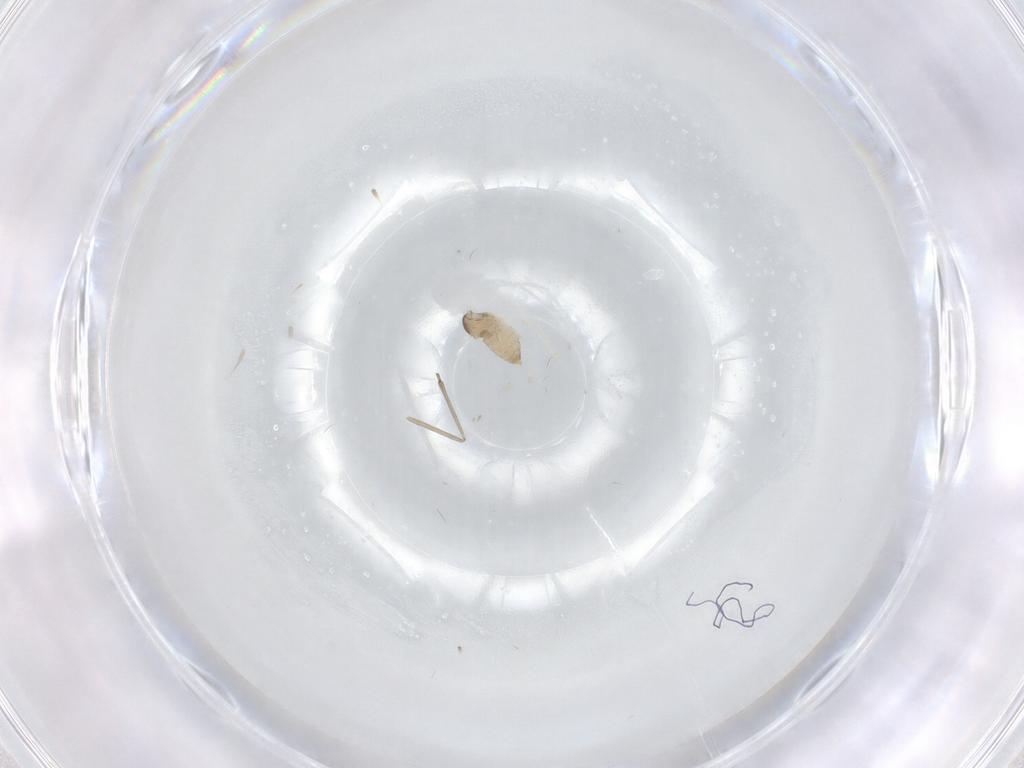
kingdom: Animalia
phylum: Arthropoda
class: Insecta
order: Diptera
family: Cecidomyiidae
